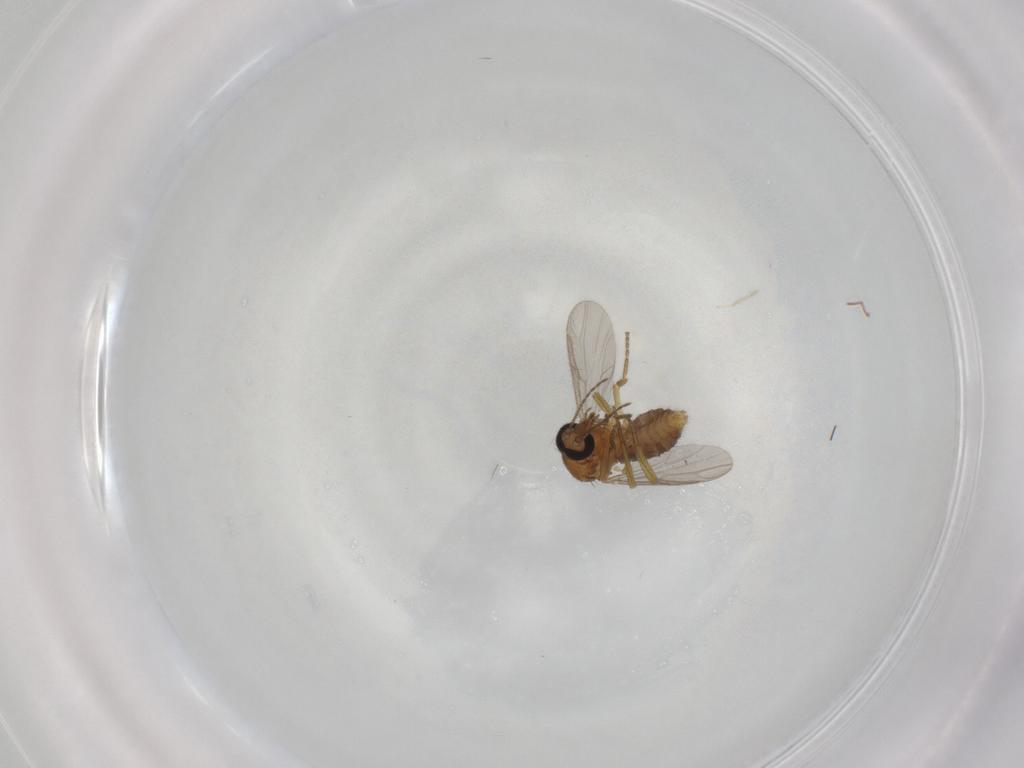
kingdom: Animalia
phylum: Arthropoda
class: Insecta
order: Diptera
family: Ceratopogonidae
